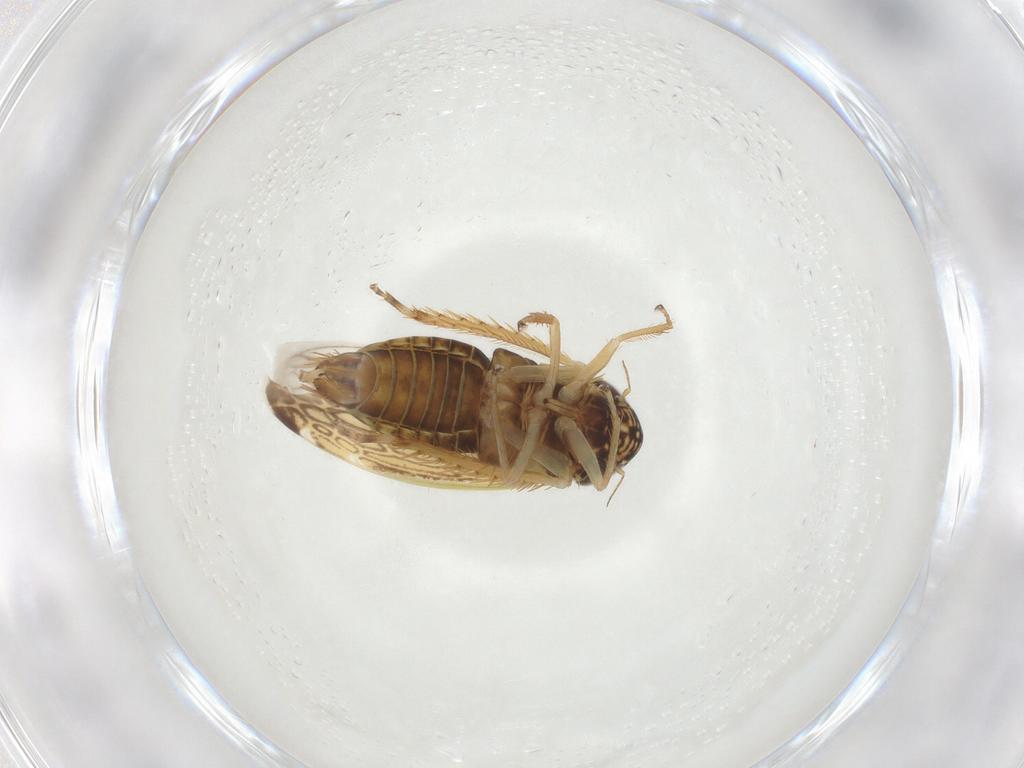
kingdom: Animalia
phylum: Arthropoda
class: Insecta
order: Hemiptera
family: Cicadellidae
